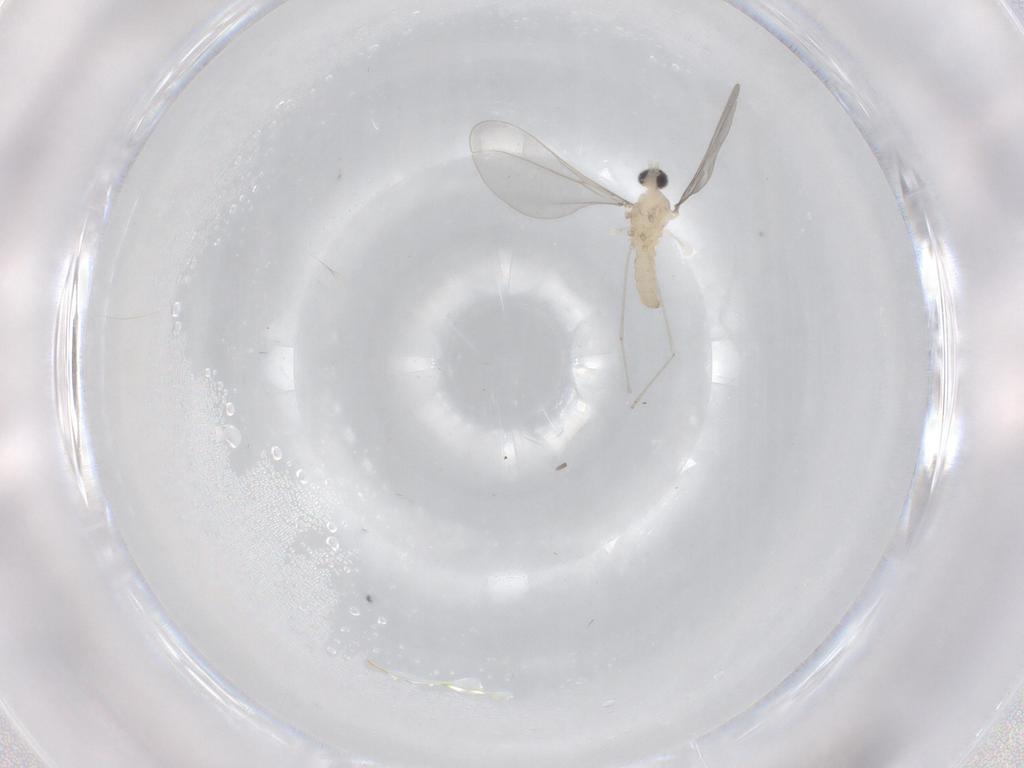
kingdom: Animalia
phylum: Arthropoda
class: Insecta
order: Diptera
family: Cecidomyiidae
